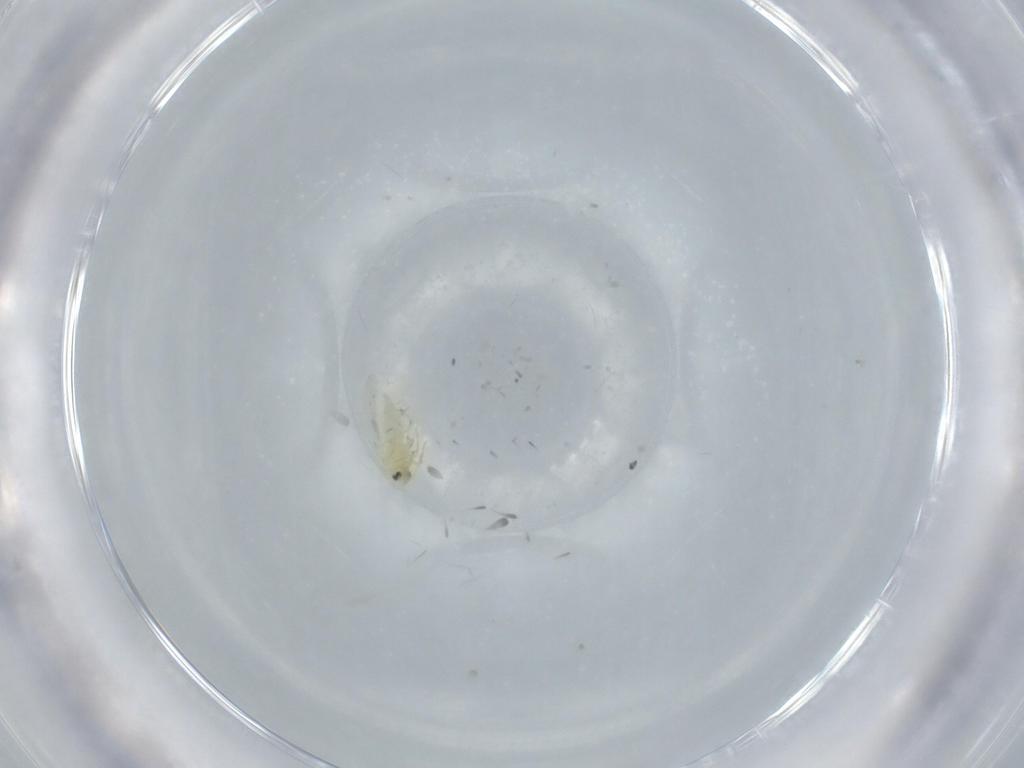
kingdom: Animalia
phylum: Arthropoda
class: Insecta
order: Hemiptera
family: Aleyrodidae
